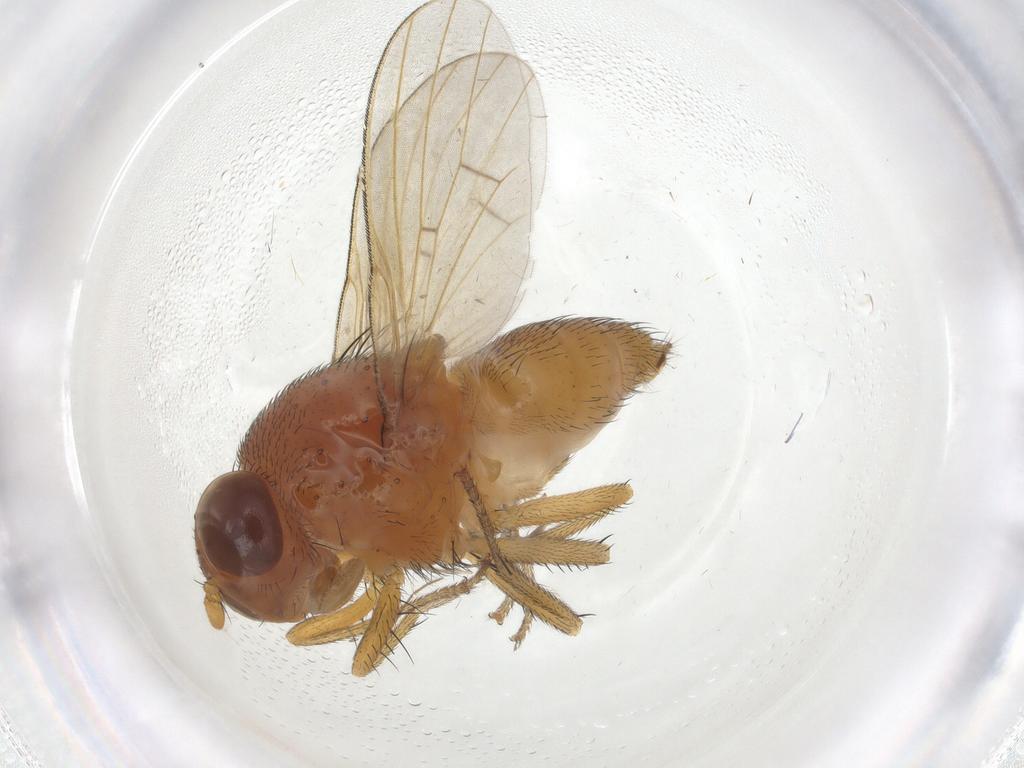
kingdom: Animalia
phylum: Arthropoda
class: Insecta
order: Diptera
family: Chironomidae
